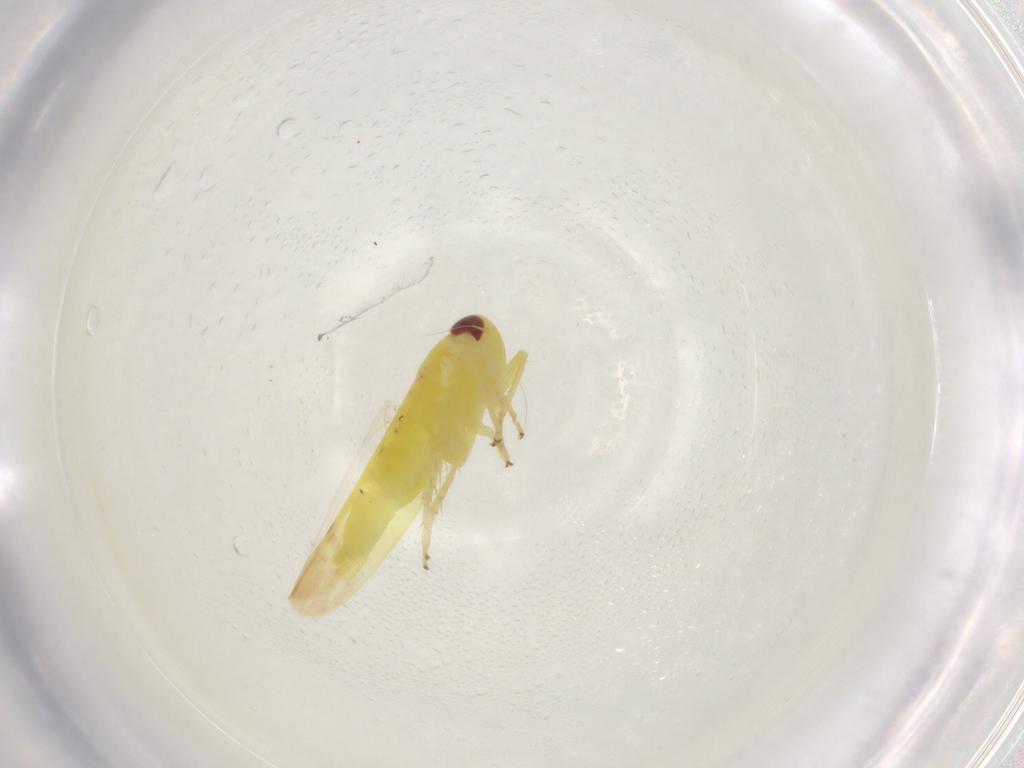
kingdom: Animalia
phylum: Arthropoda
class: Insecta
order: Hemiptera
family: Cicadellidae
